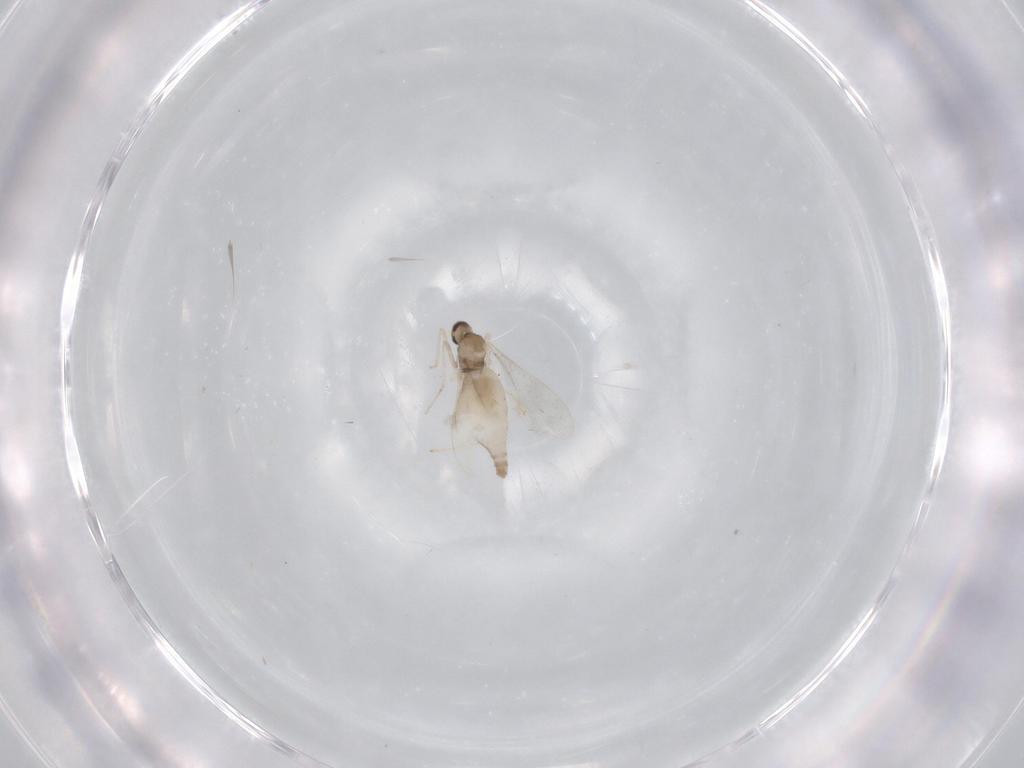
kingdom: Animalia
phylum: Arthropoda
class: Insecta
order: Diptera
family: Cecidomyiidae
